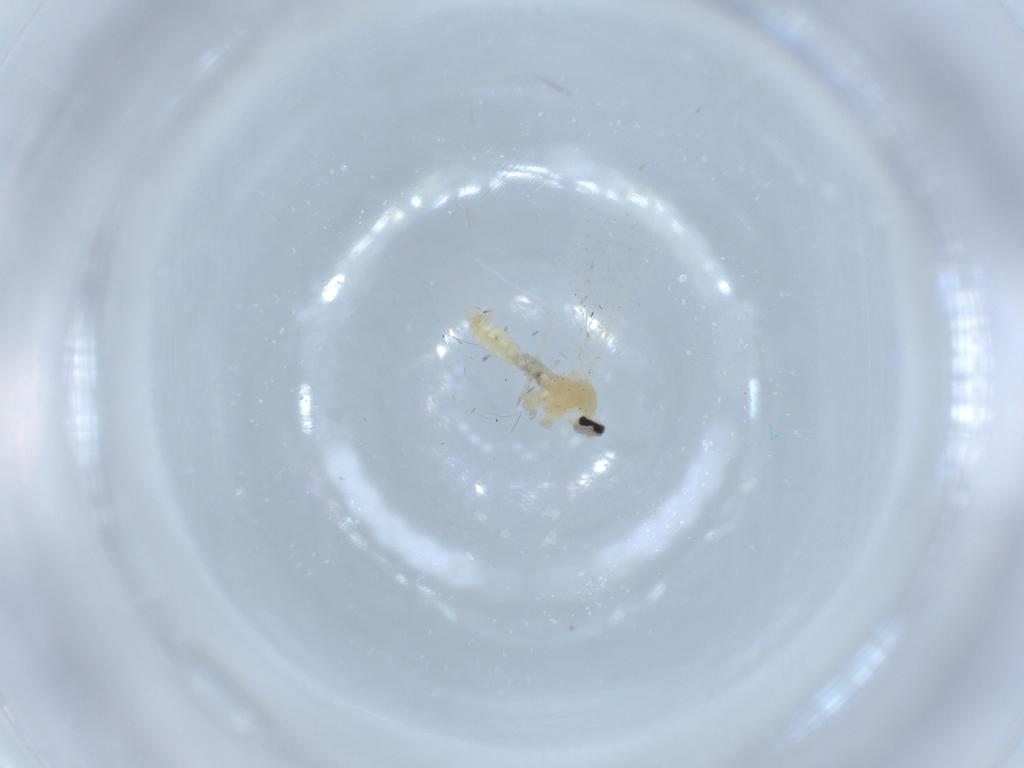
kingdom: Animalia
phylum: Arthropoda
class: Insecta
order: Diptera
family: Cecidomyiidae
